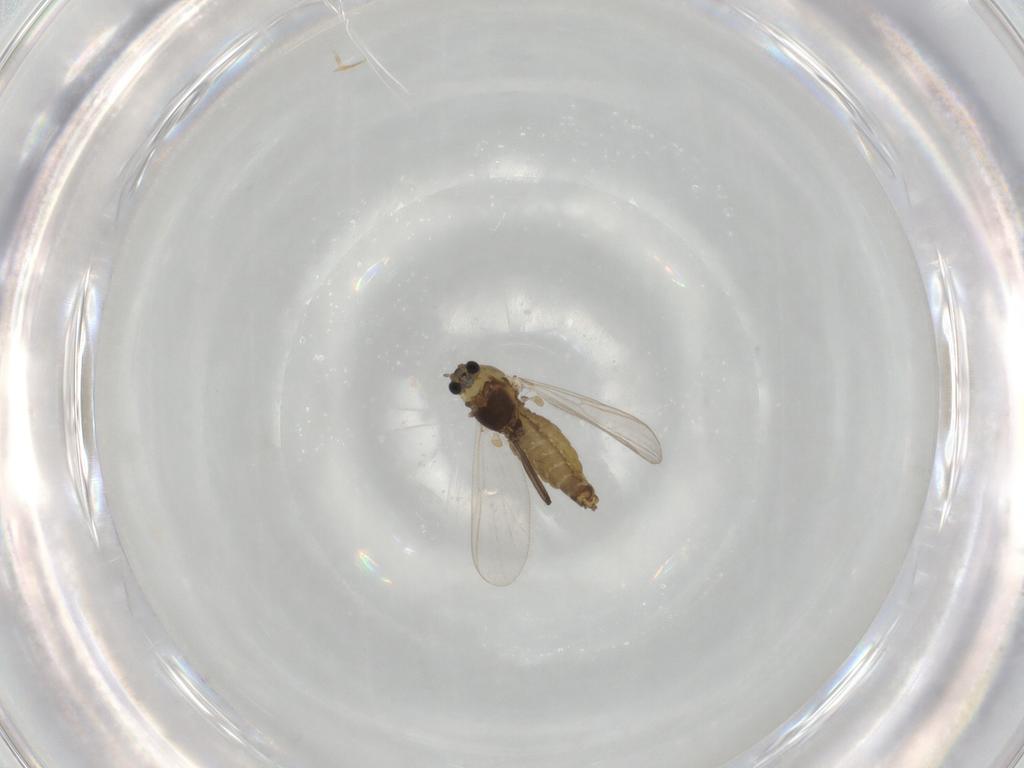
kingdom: Animalia
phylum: Arthropoda
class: Insecta
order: Diptera
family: Chironomidae
